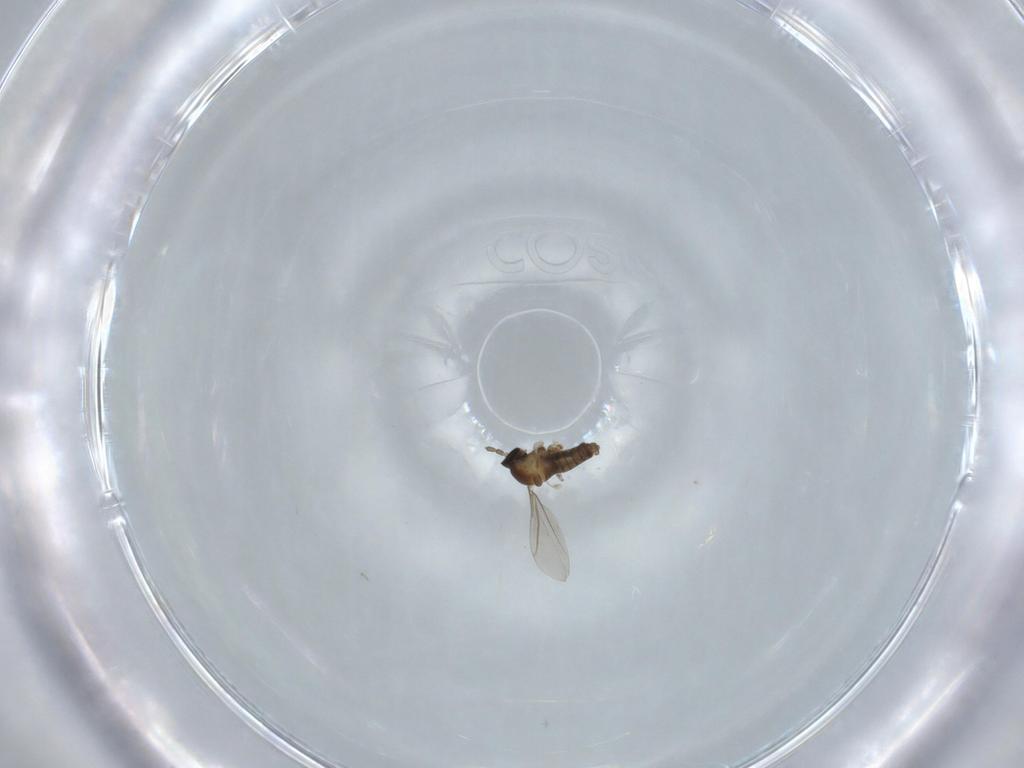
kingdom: Animalia
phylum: Arthropoda
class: Insecta
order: Diptera
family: Cecidomyiidae
